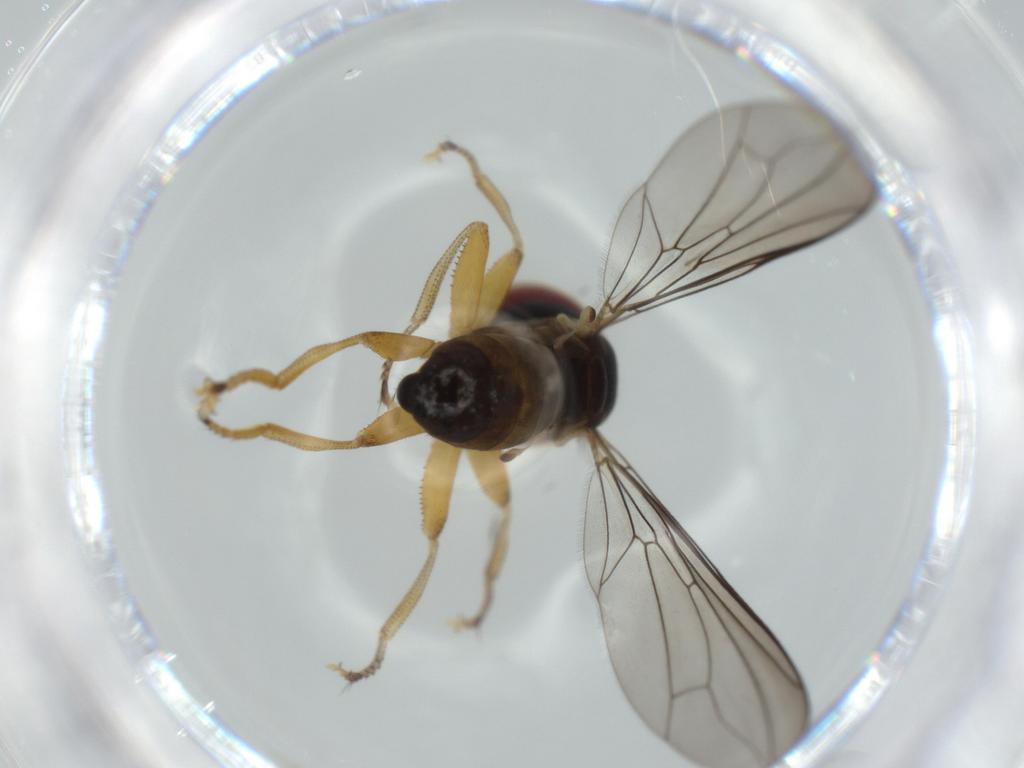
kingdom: Animalia
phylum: Arthropoda
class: Insecta
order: Diptera
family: Pipunculidae
